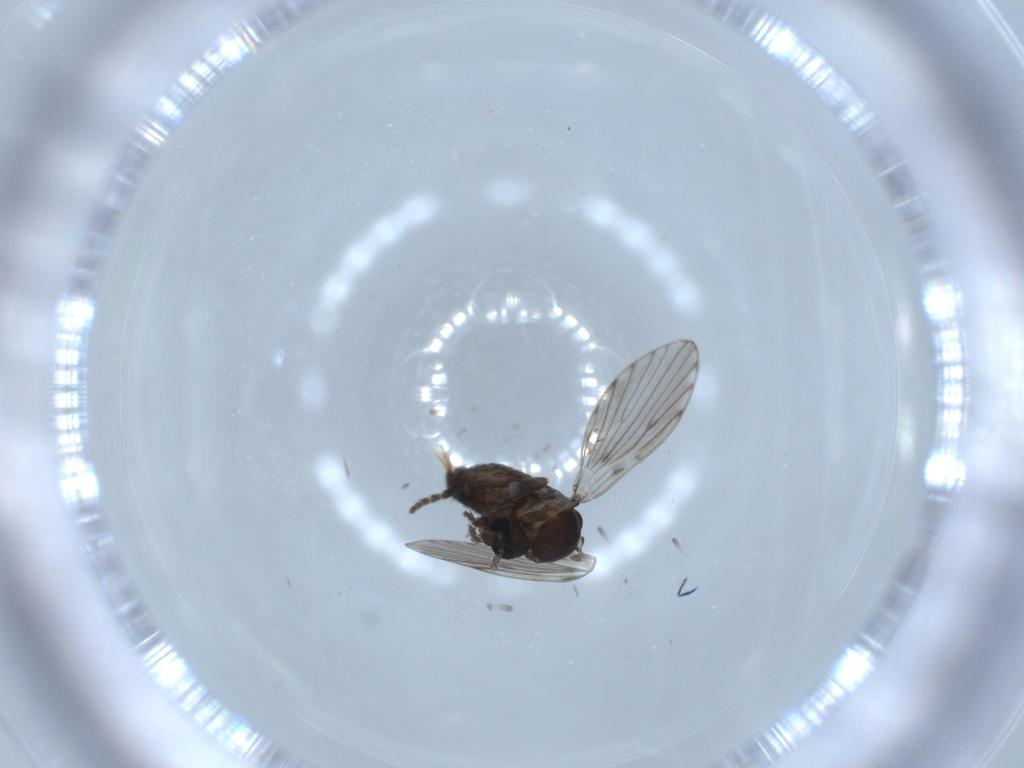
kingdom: Animalia
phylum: Arthropoda
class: Insecta
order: Diptera
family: Psychodidae
